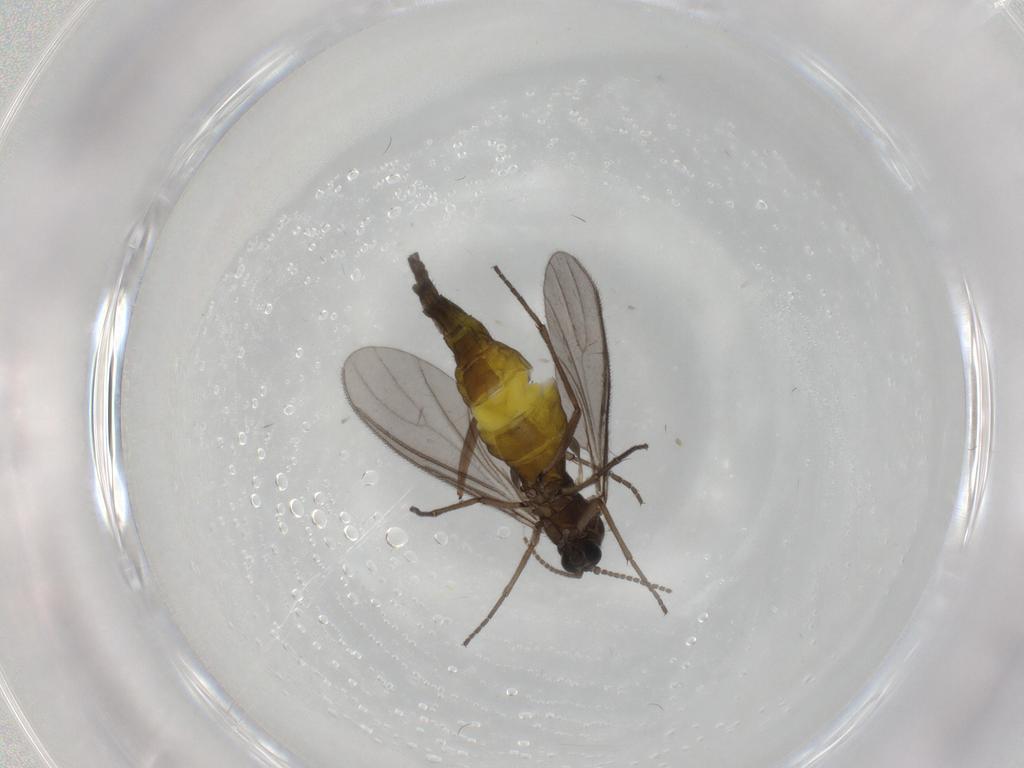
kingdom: Animalia
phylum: Arthropoda
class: Insecta
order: Diptera
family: Sciaridae
